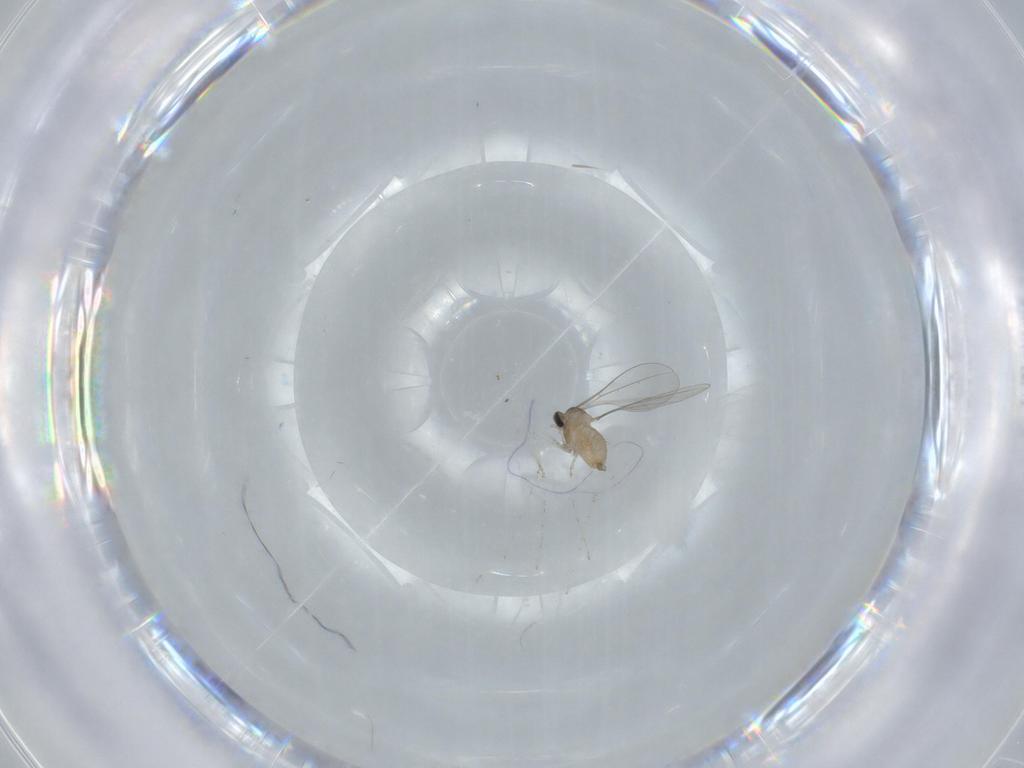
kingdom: Animalia
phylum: Arthropoda
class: Insecta
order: Diptera
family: Cecidomyiidae
